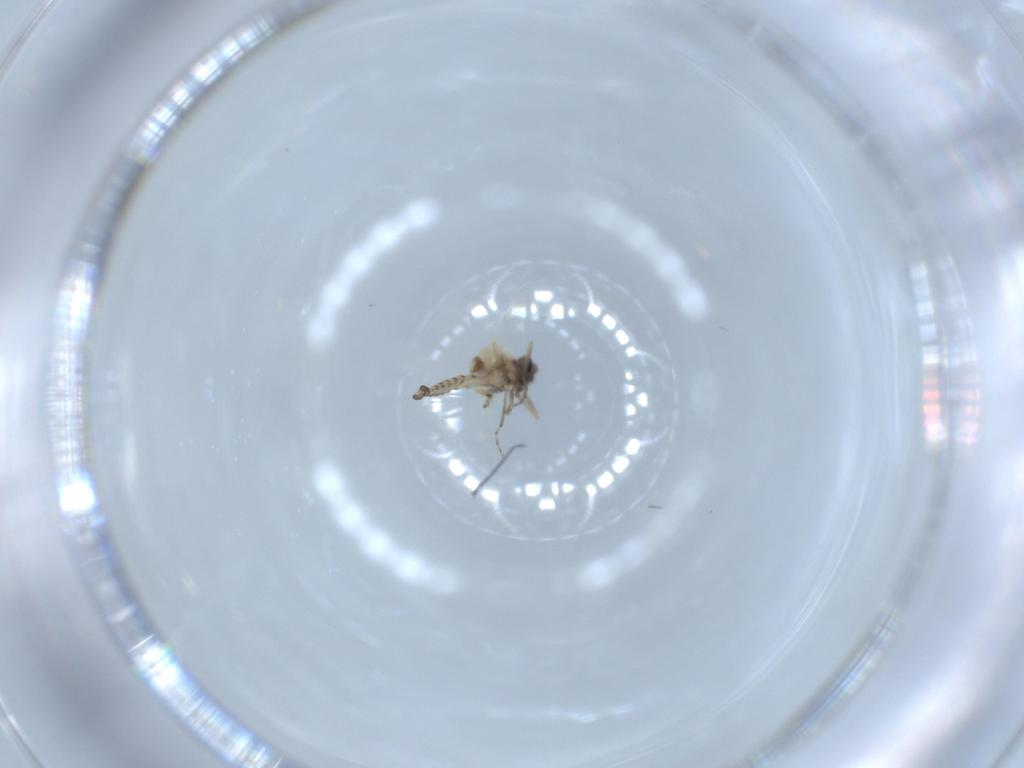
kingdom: Animalia
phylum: Arthropoda
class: Insecta
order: Diptera
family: Ceratopogonidae
